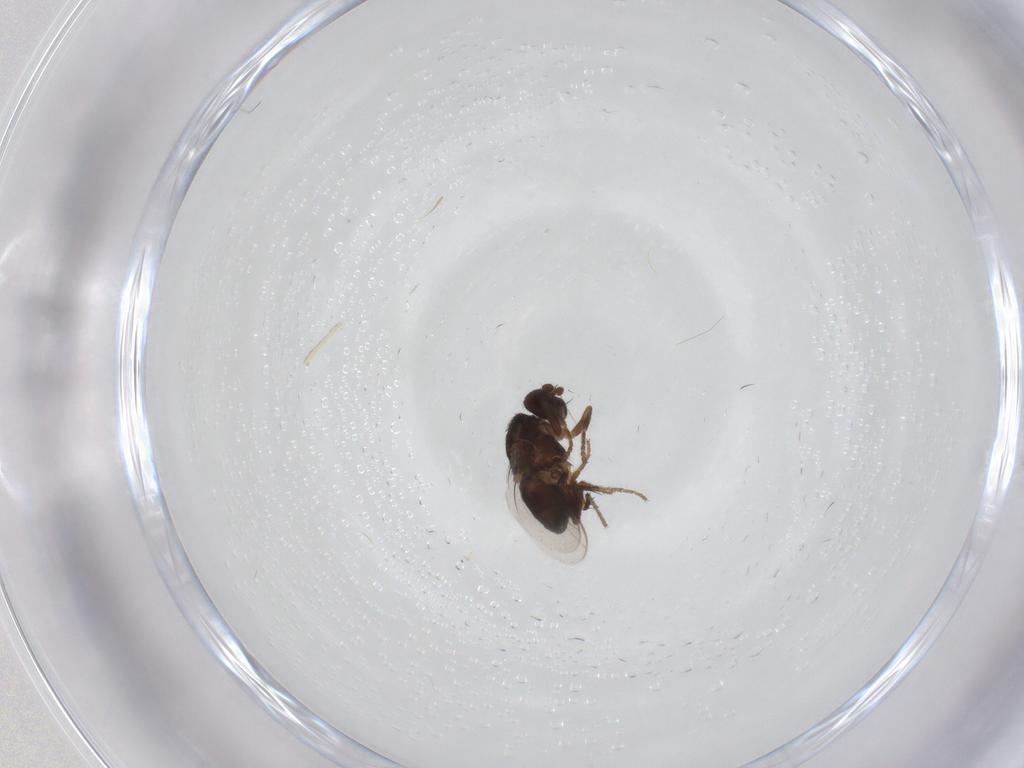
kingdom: Animalia
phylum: Arthropoda
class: Insecta
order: Diptera
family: Sphaeroceridae
